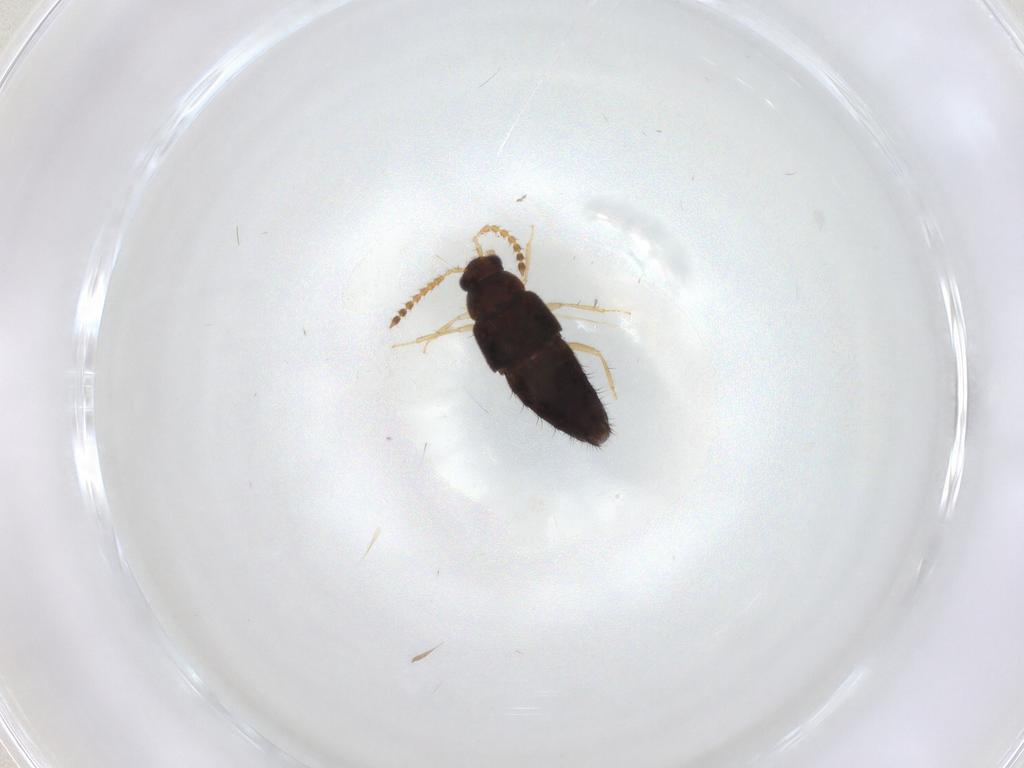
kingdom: Animalia
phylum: Arthropoda
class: Insecta
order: Coleoptera
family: Staphylinidae
